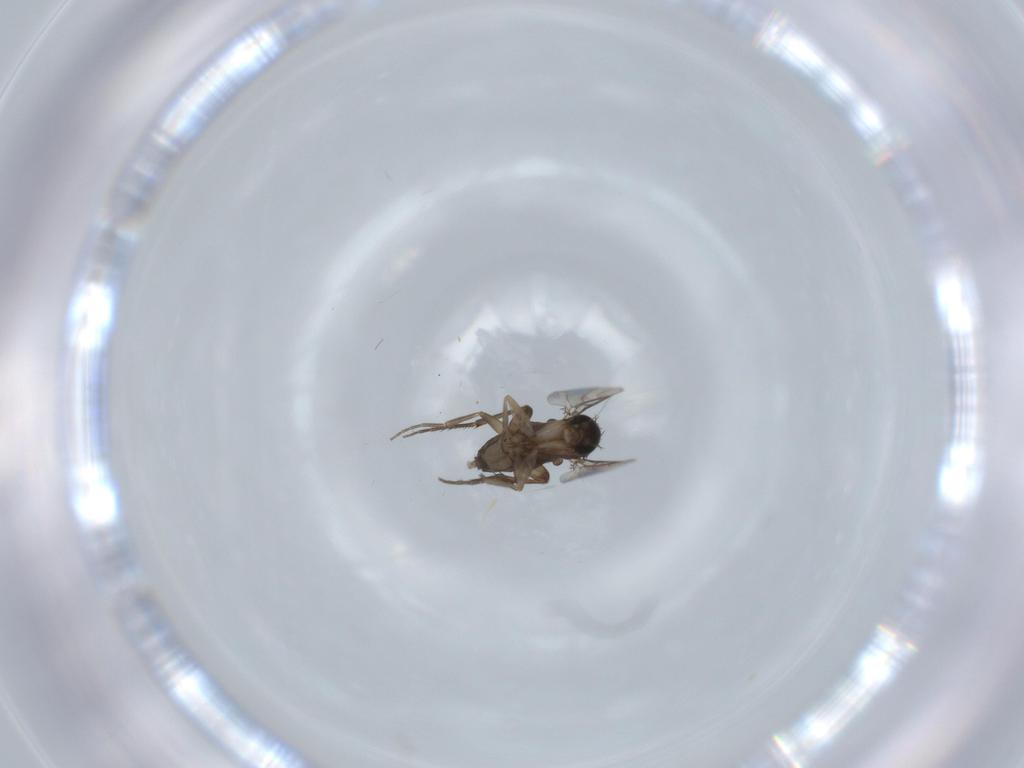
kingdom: Animalia
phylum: Arthropoda
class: Insecta
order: Diptera
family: Phoridae
